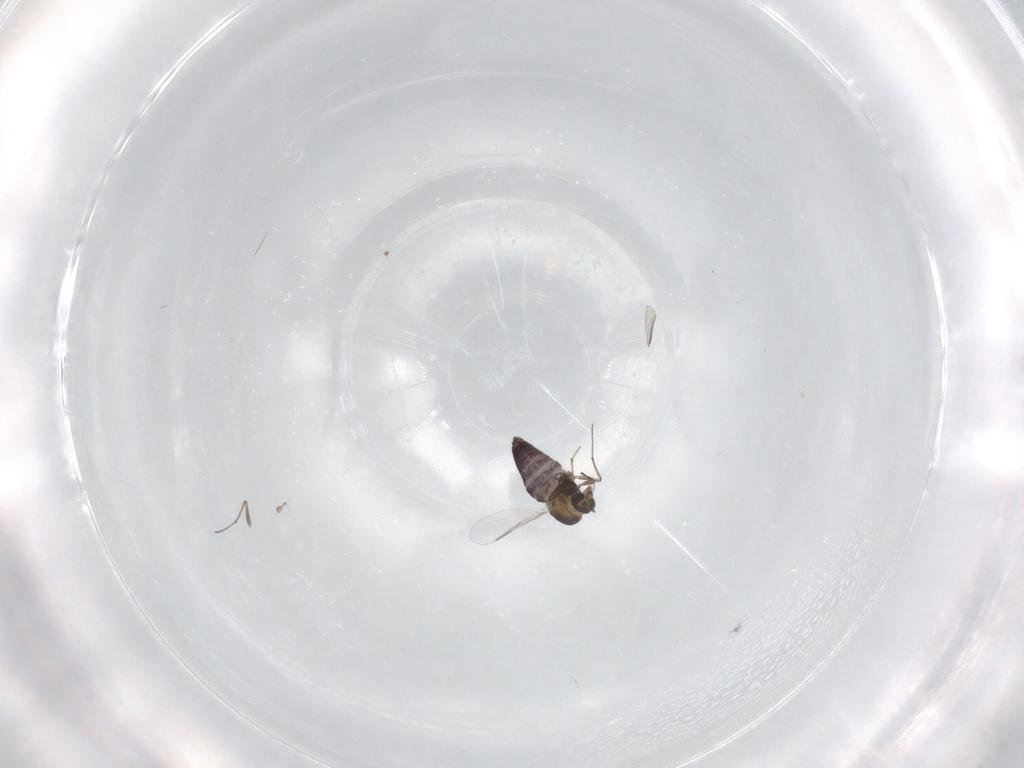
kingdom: Animalia
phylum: Arthropoda
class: Insecta
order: Diptera
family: Chironomidae
